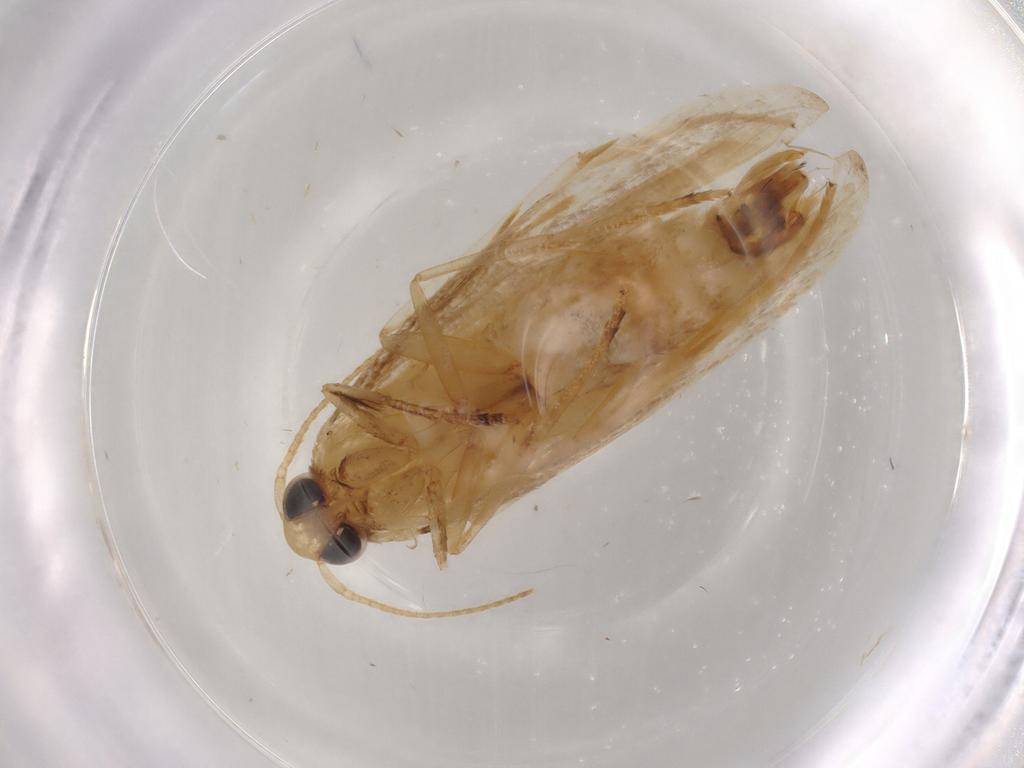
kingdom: Animalia
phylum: Arthropoda
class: Insecta
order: Lepidoptera
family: Gelechiidae
